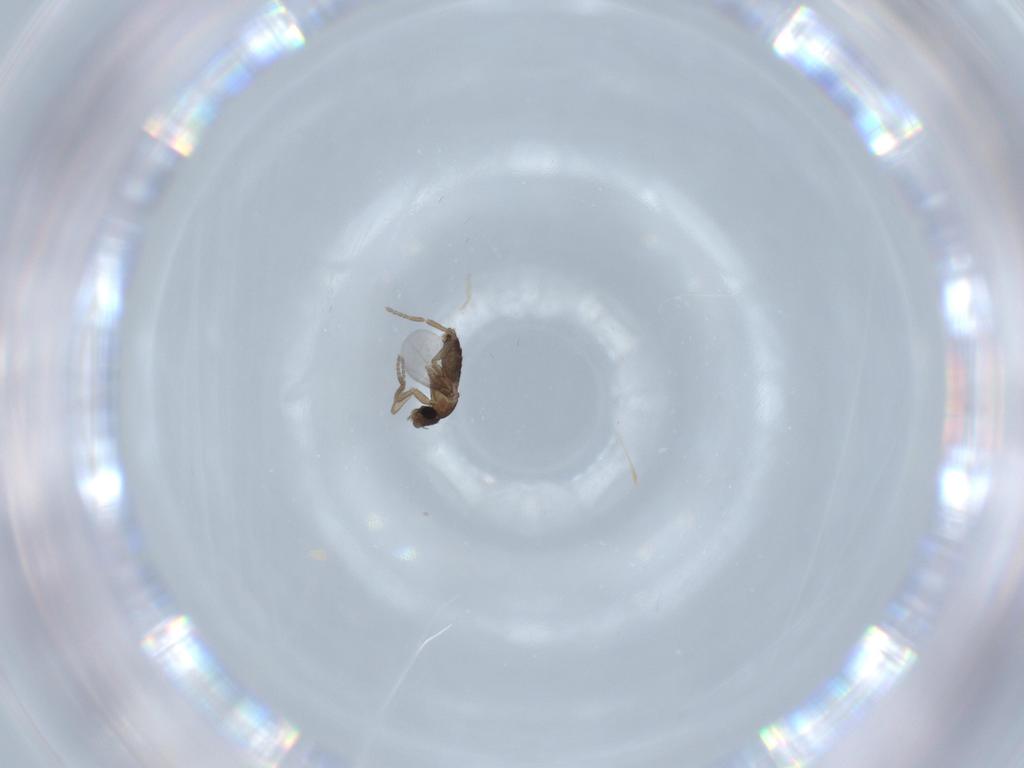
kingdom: Animalia
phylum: Arthropoda
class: Insecta
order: Diptera
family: Phoridae
